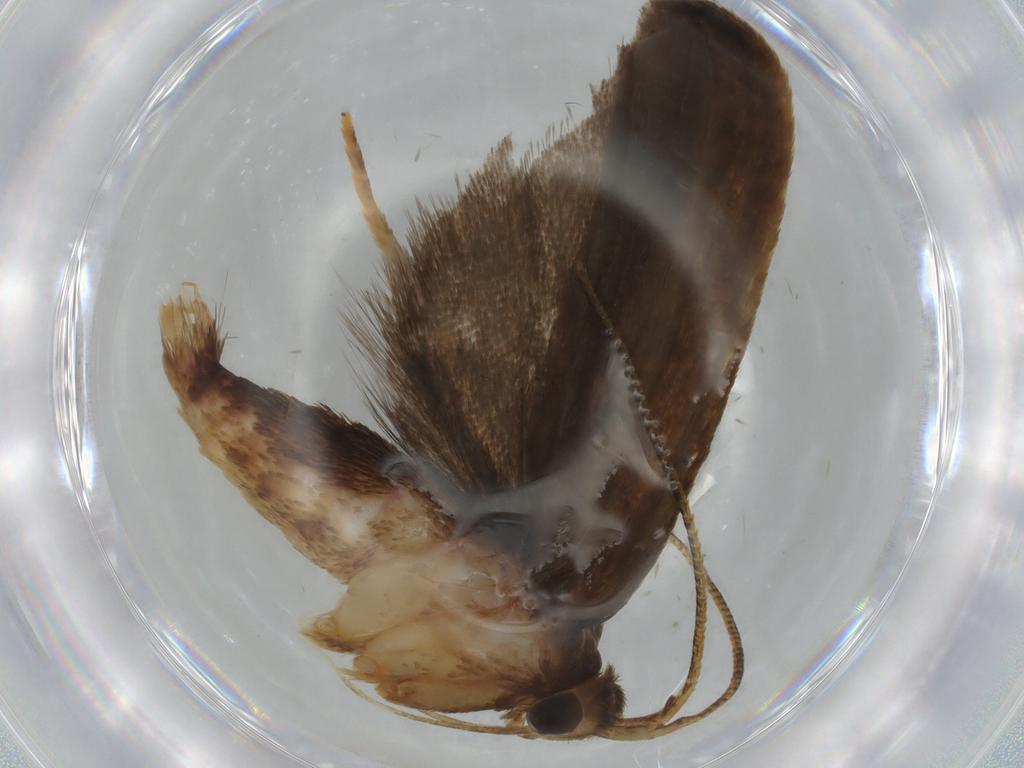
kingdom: Animalia
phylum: Arthropoda
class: Insecta
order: Lepidoptera
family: Autostichidae
